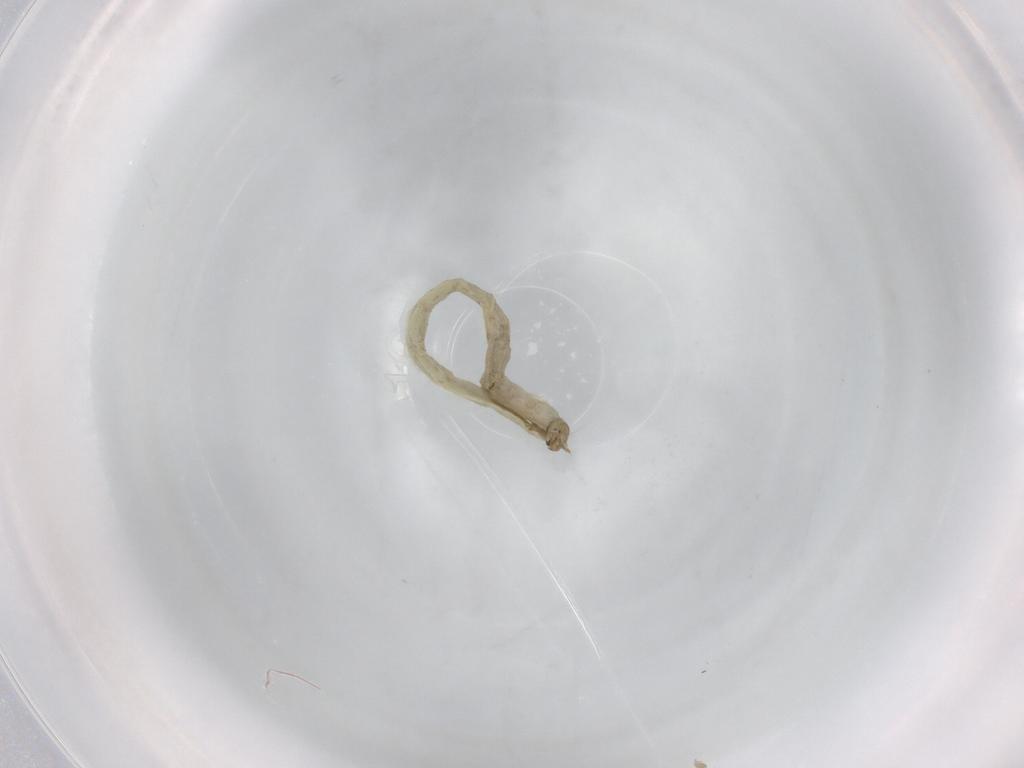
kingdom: Animalia
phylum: Arthropoda
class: Insecta
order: Diptera
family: Chironomidae
